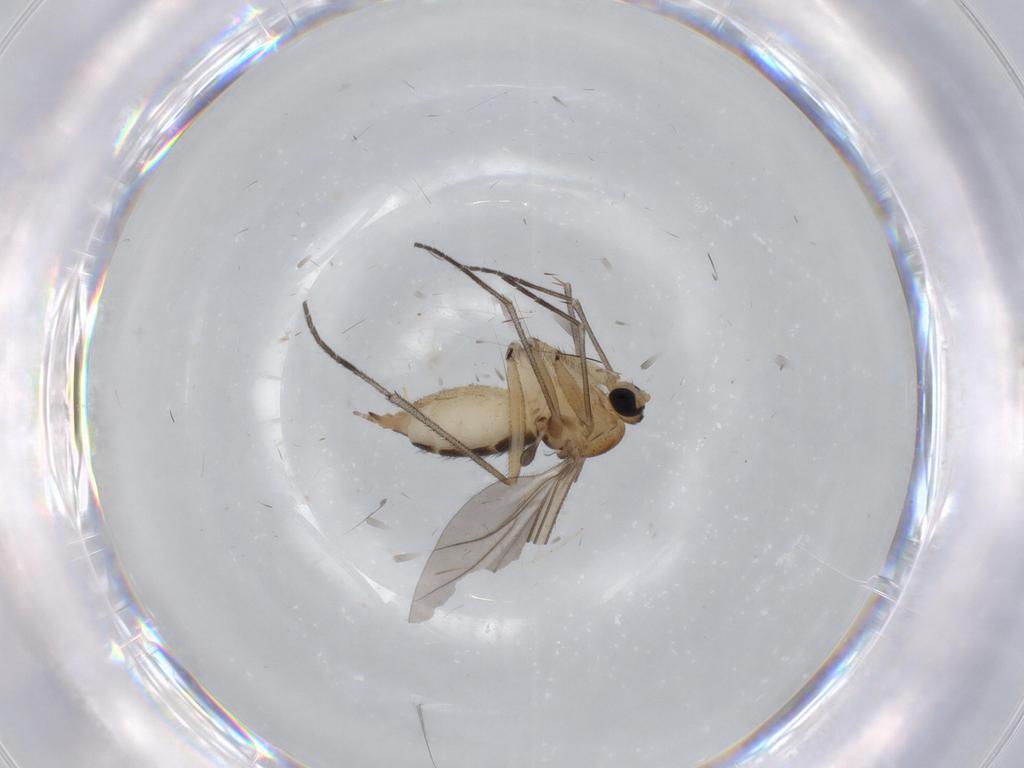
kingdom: Animalia
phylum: Arthropoda
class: Insecta
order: Diptera
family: Sciaridae
